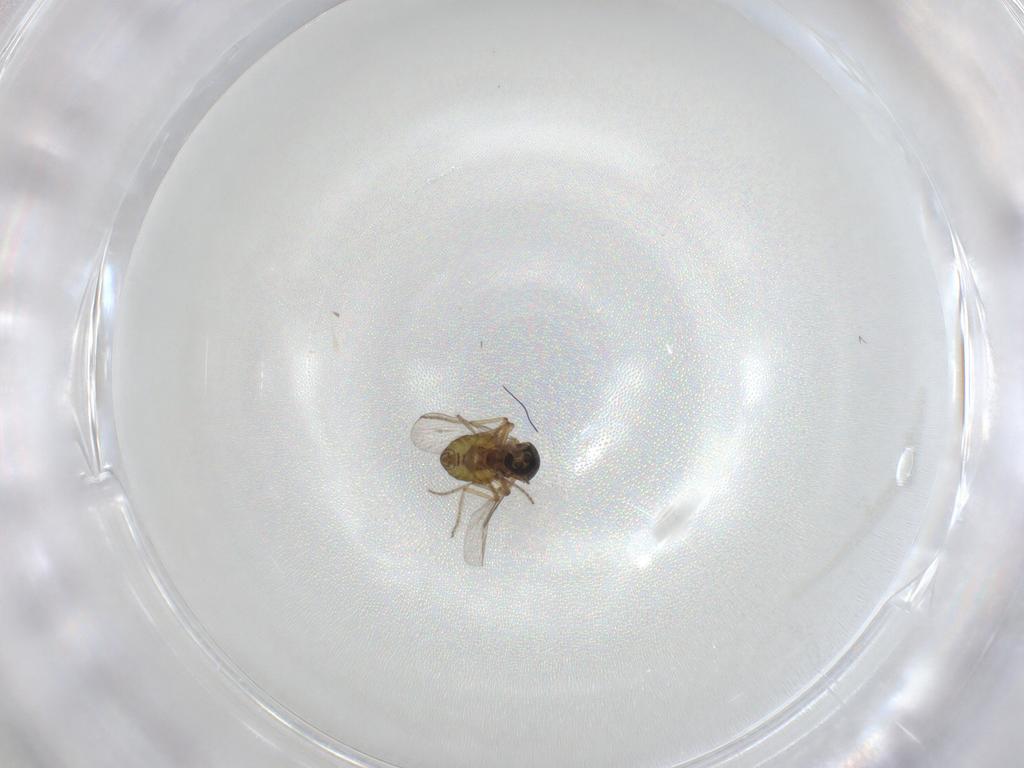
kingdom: Animalia
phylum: Arthropoda
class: Insecta
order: Diptera
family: Ceratopogonidae
